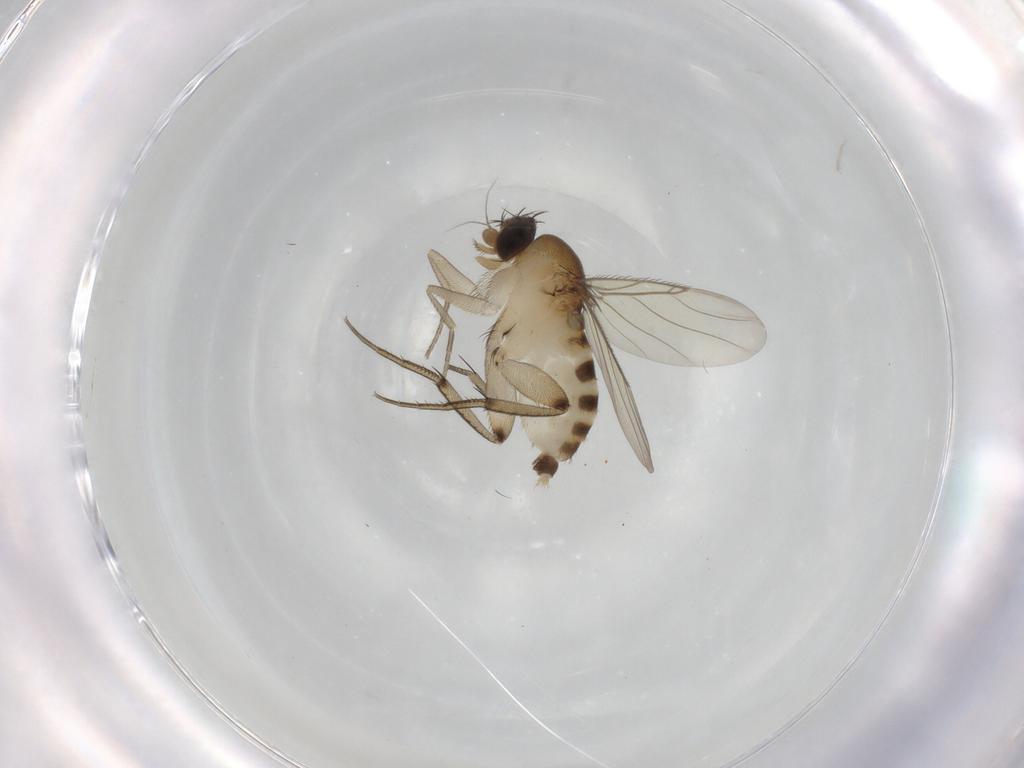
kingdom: Animalia
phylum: Arthropoda
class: Insecta
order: Diptera
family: Phoridae
